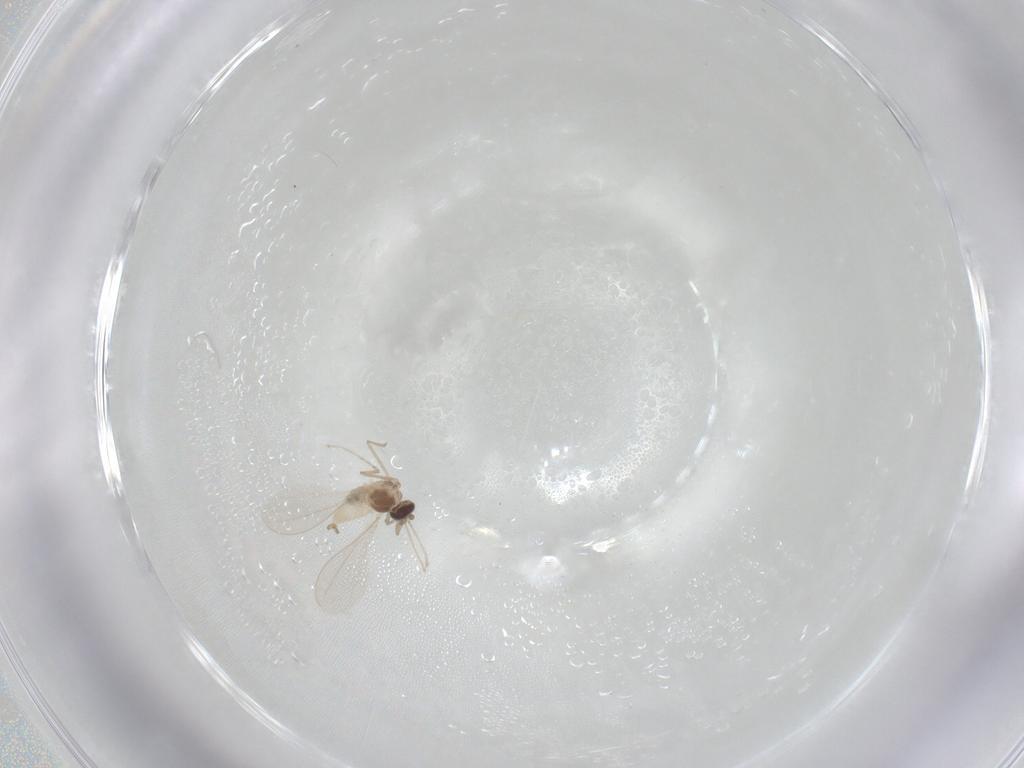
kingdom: Animalia
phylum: Arthropoda
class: Insecta
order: Diptera
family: Cecidomyiidae
